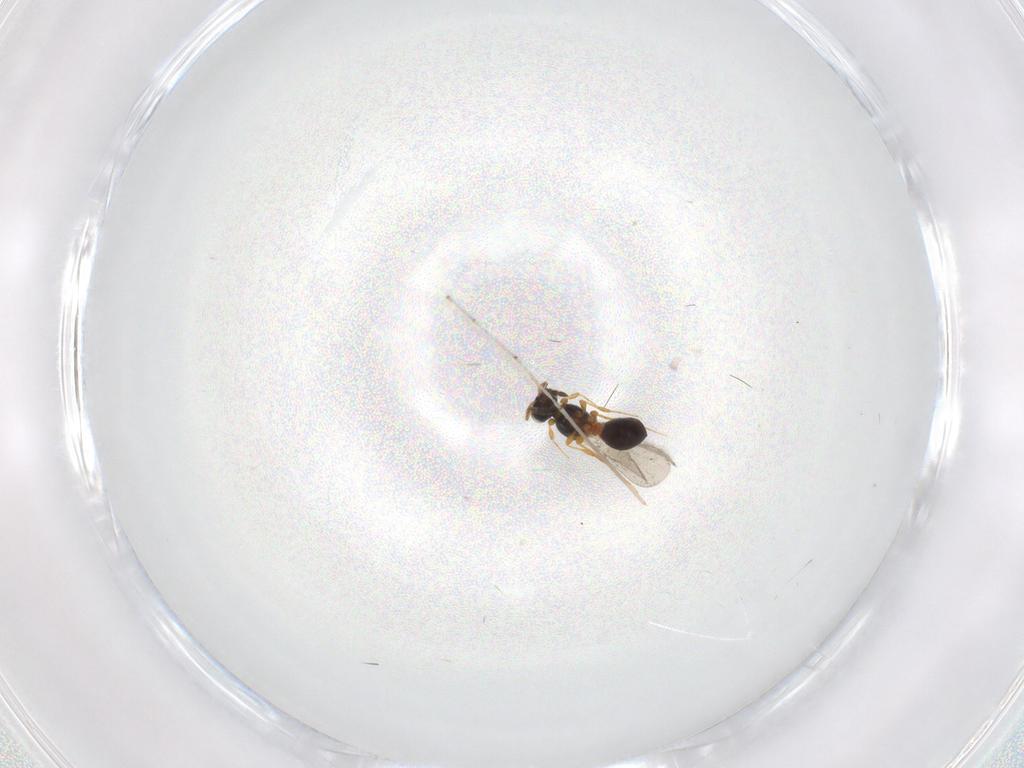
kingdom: Animalia
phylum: Arthropoda
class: Insecta
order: Hymenoptera
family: Platygastridae
